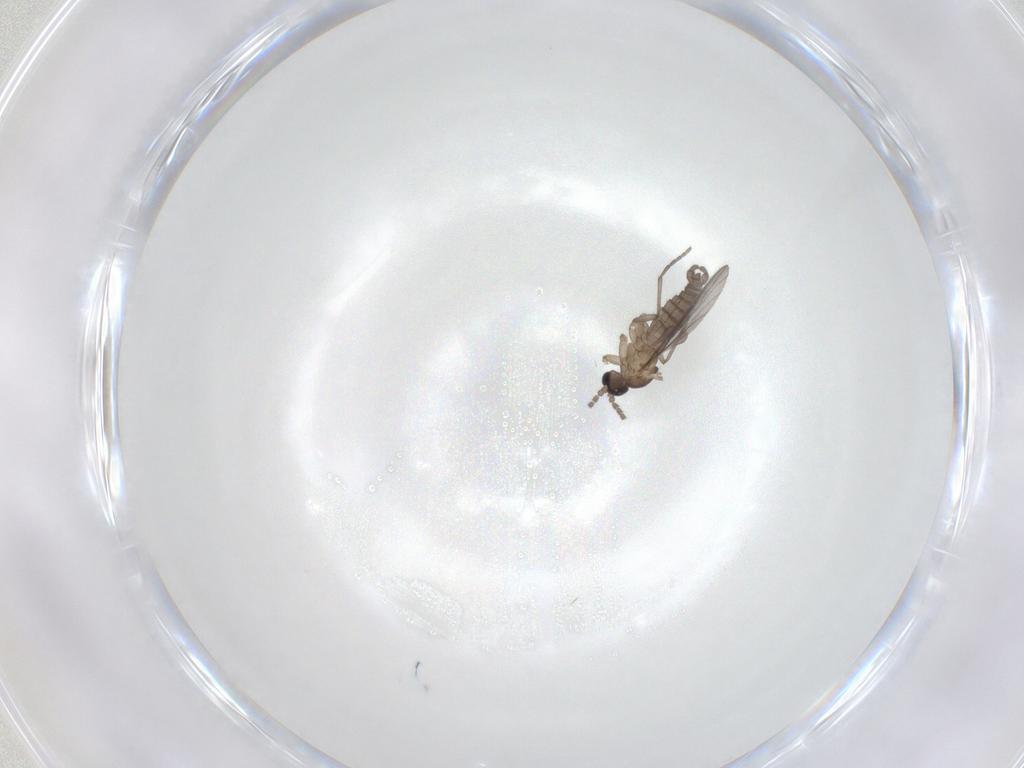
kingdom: Animalia
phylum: Arthropoda
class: Insecta
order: Diptera
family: Sciaridae
